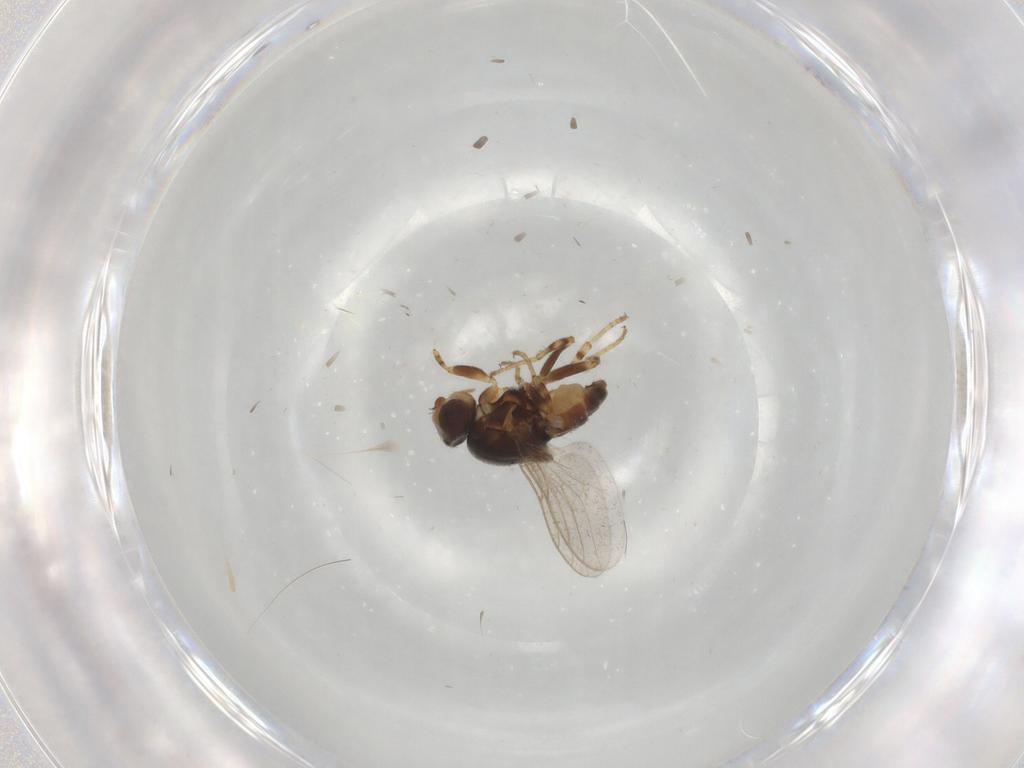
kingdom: Animalia
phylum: Arthropoda
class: Insecta
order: Diptera
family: Chloropidae
